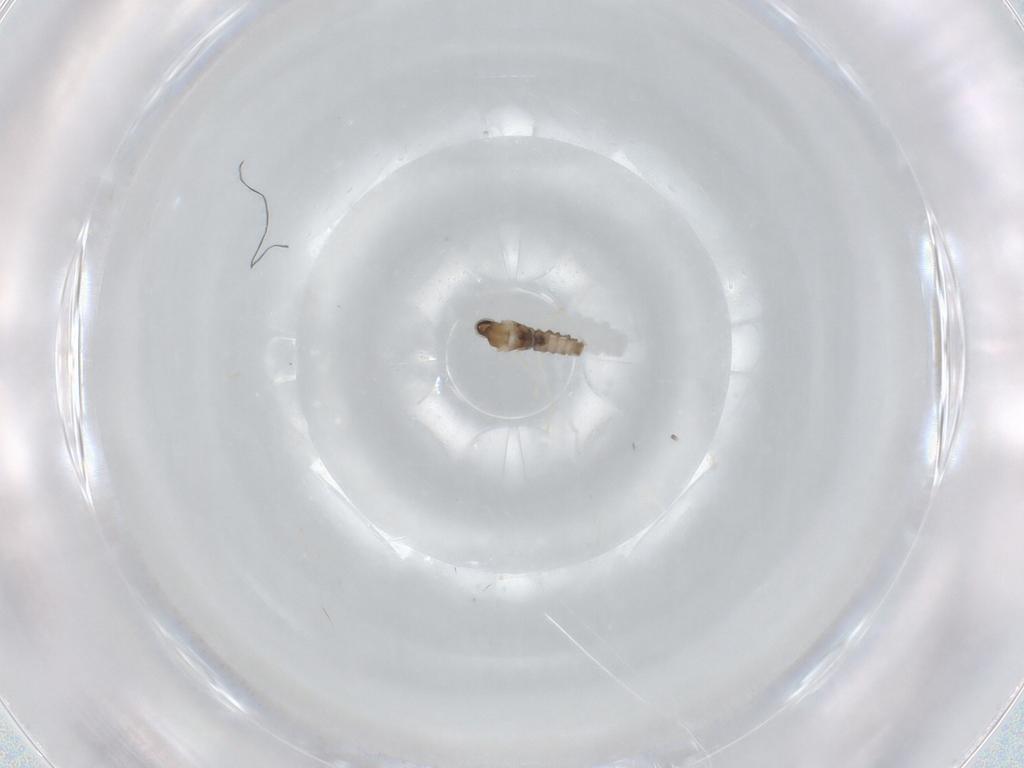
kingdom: Animalia
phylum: Arthropoda
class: Insecta
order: Diptera
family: Cecidomyiidae
